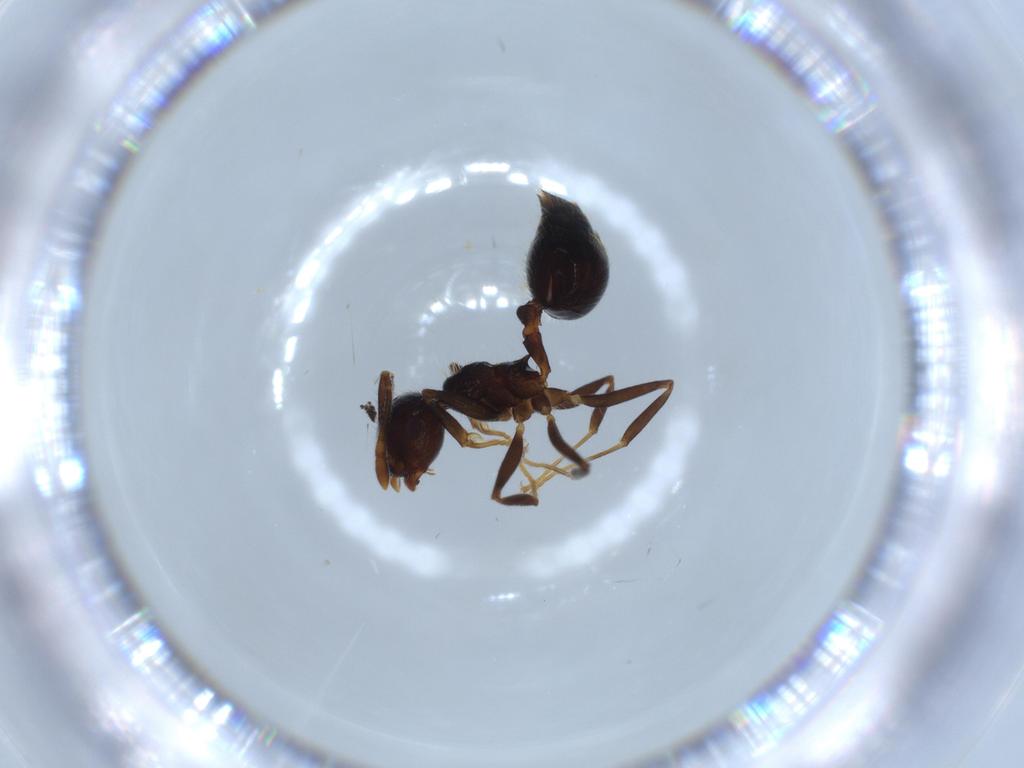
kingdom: Animalia
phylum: Arthropoda
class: Insecta
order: Hymenoptera
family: Formicidae
